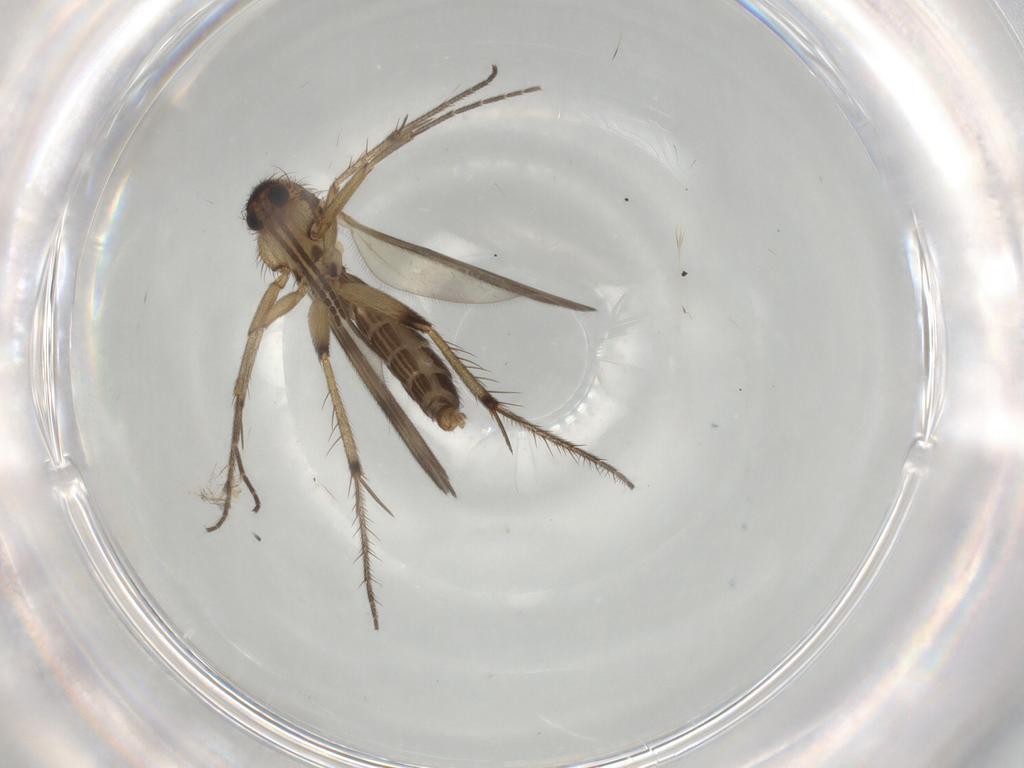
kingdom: Animalia
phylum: Arthropoda
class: Insecta
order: Diptera
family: Chironomidae
